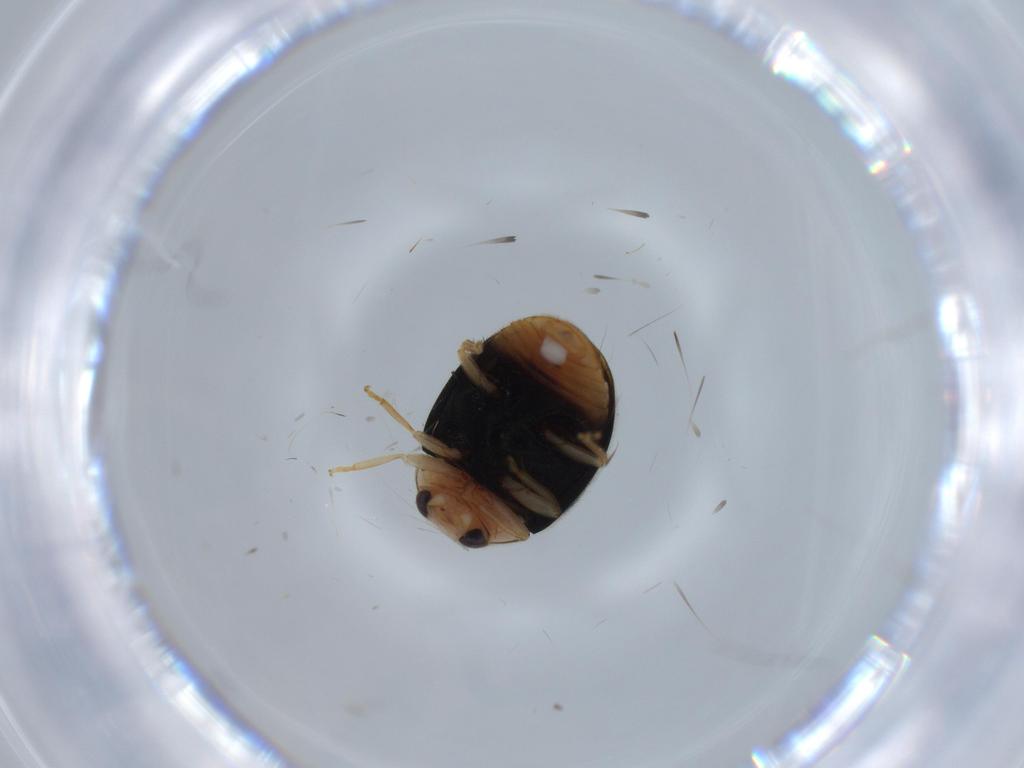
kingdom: Animalia
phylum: Arthropoda
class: Insecta
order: Coleoptera
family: Coccinellidae
